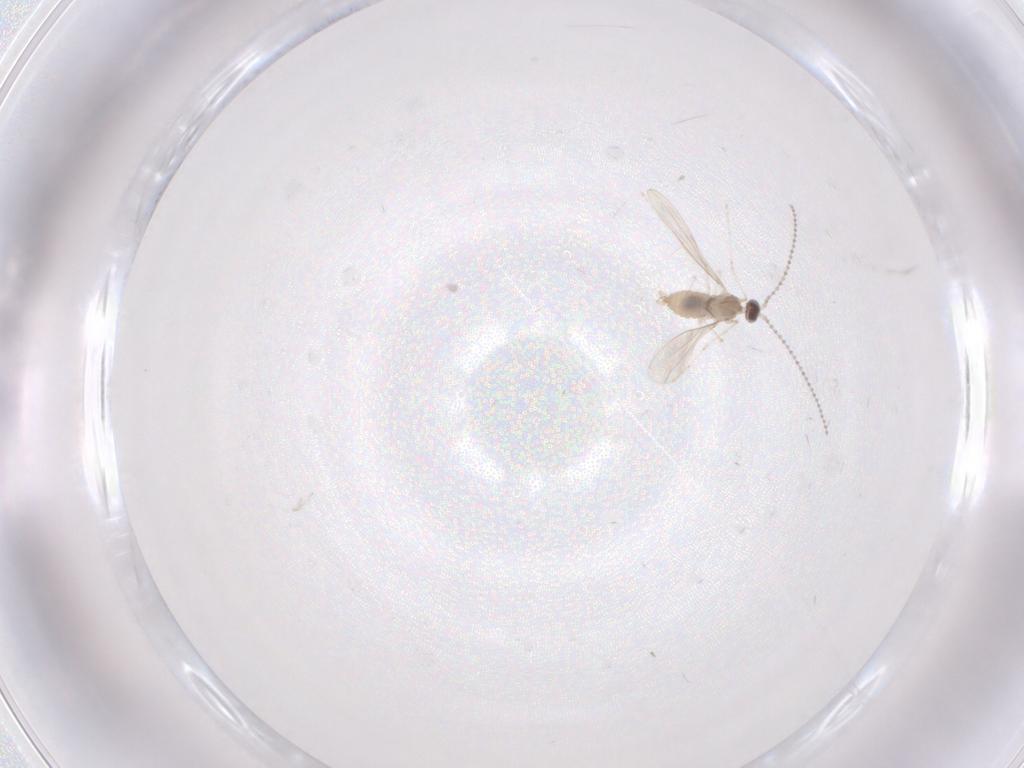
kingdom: Animalia
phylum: Arthropoda
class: Insecta
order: Diptera
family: Cecidomyiidae
